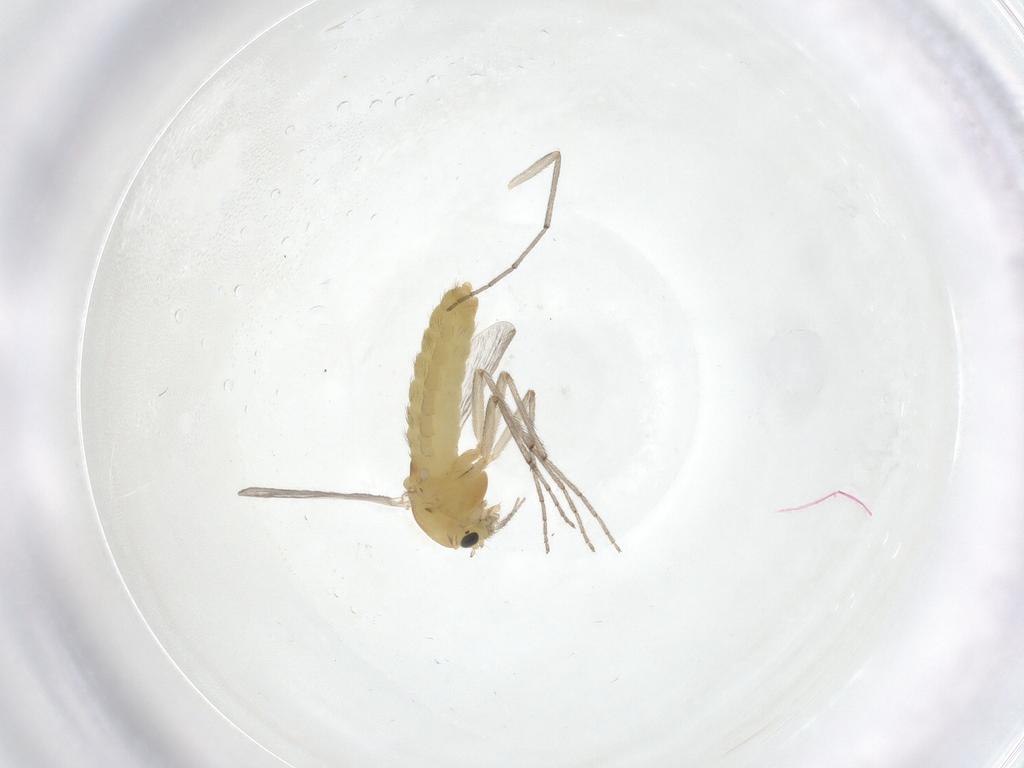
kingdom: Animalia
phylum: Arthropoda
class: Insecta
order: Diptera
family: Chironomidae
